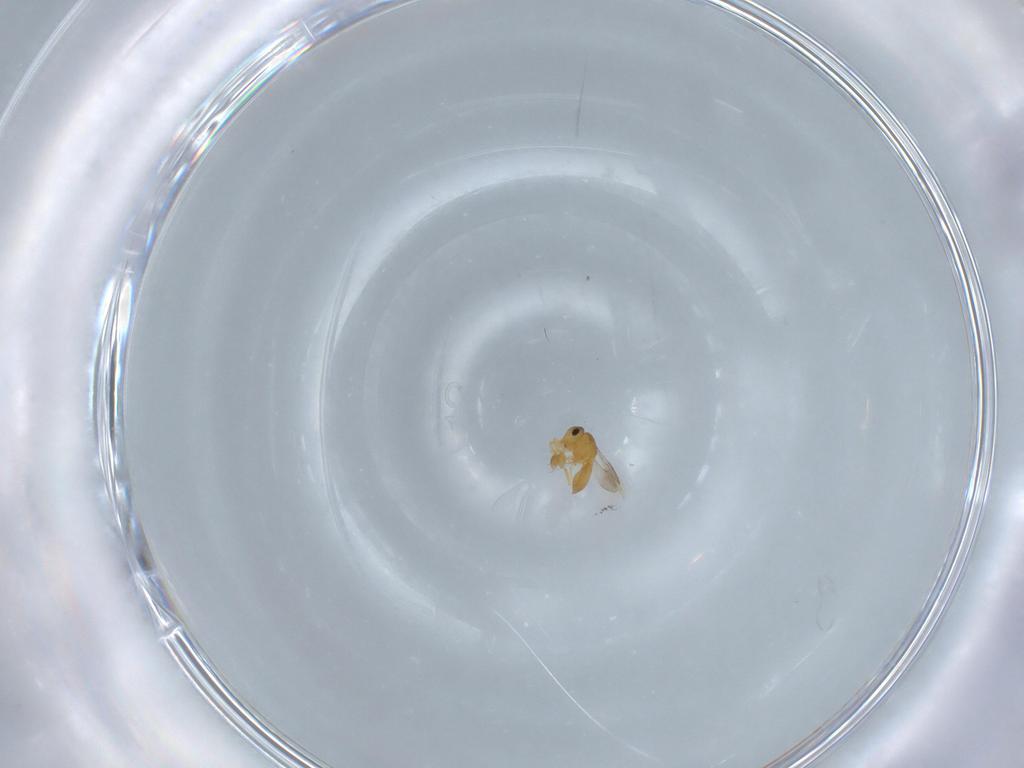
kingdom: Animalia
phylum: Arthropoda
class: Insecta
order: Hymenoptera
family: Scelionidae
